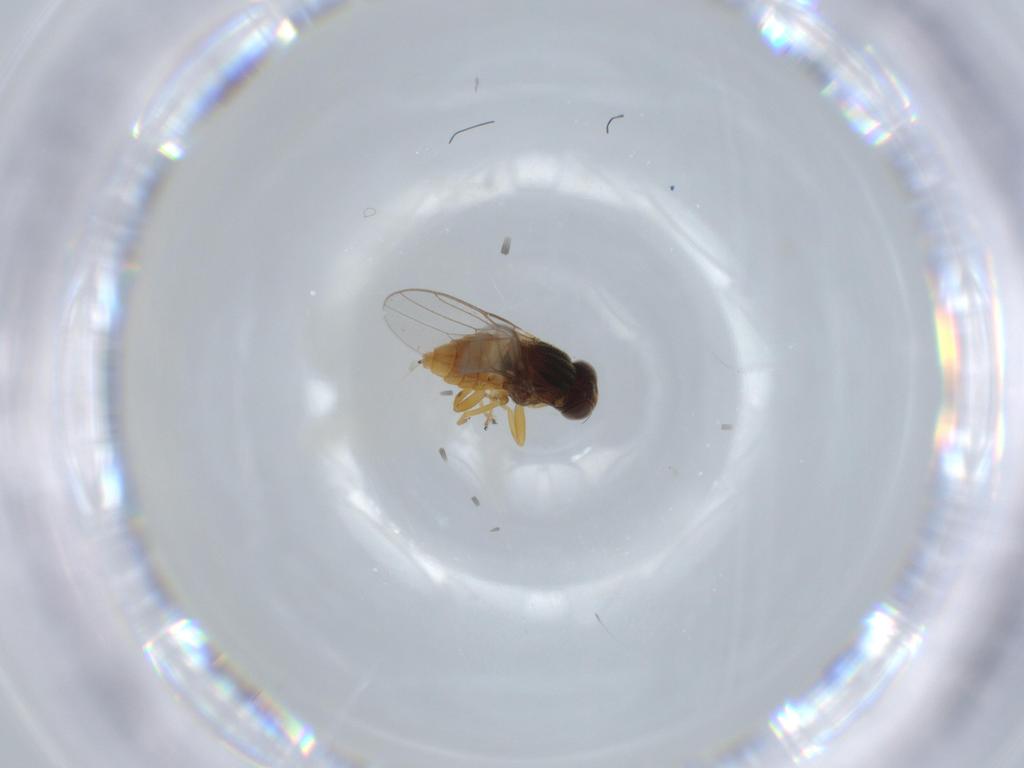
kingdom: Animalia
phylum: Arthropoda
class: Insecta
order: Diptera
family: Chloropidae
